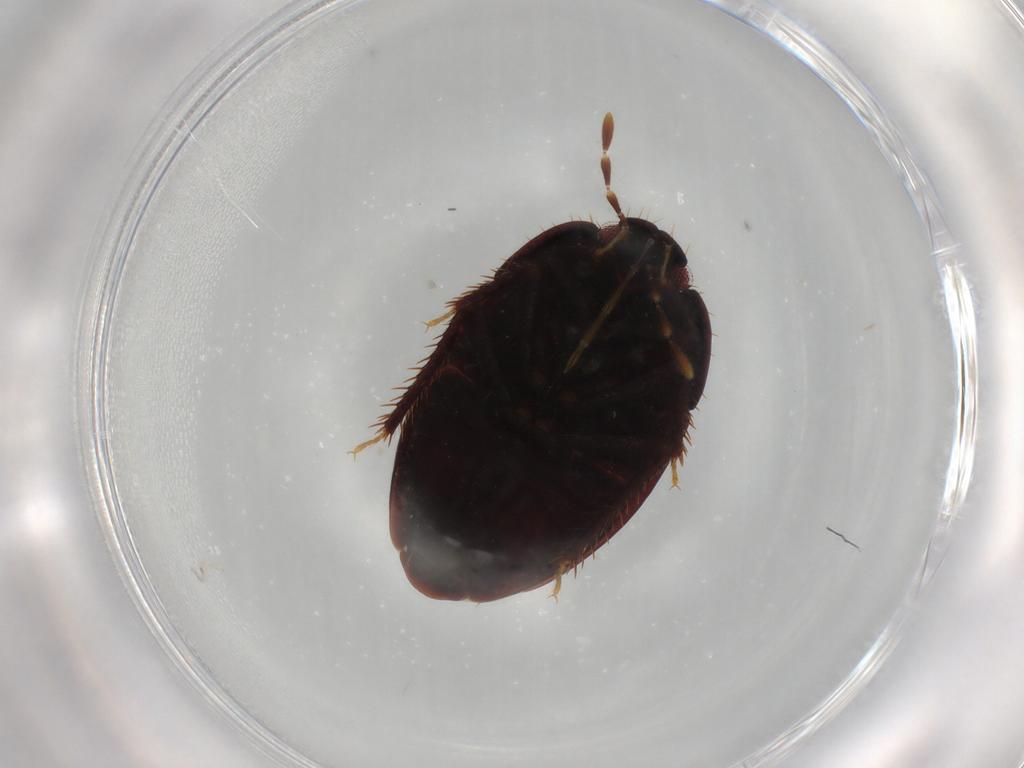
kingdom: Animalia
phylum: Arthropoda
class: Insecta
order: Hemiptera
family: Cydnidae
